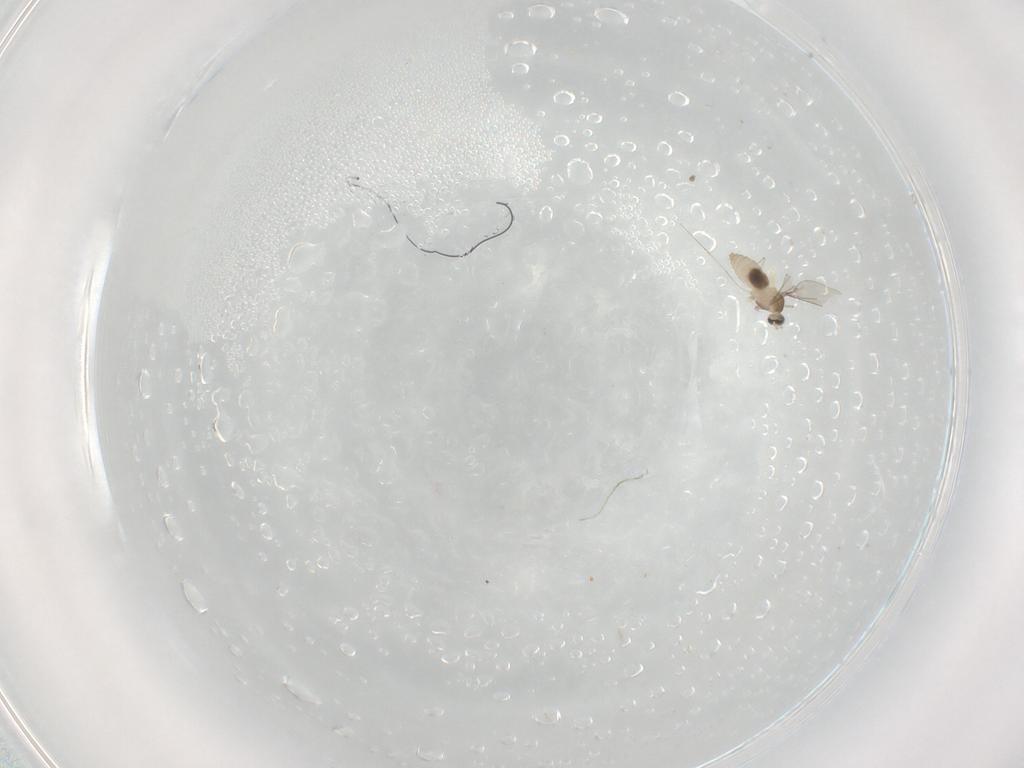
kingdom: Animalia
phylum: Arthropoda
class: Insecta
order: Diptera
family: Cecidomyiidae
